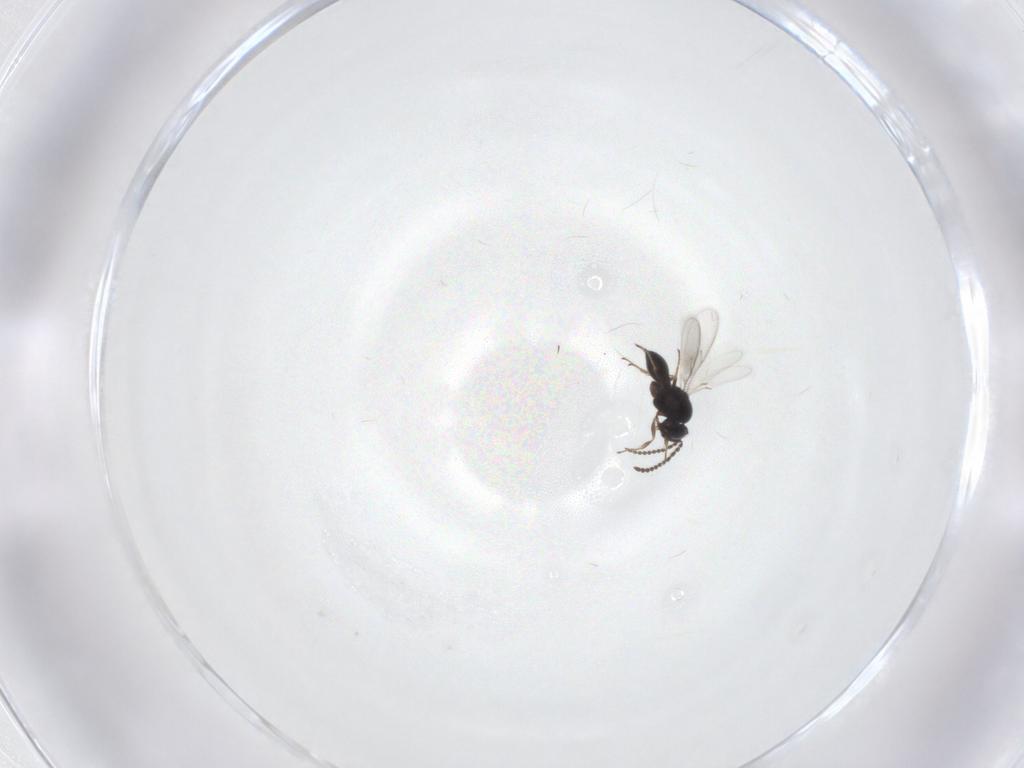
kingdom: Animalia
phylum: Arthropoda
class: Insecta
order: Hymenoptera
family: Scelionidae
